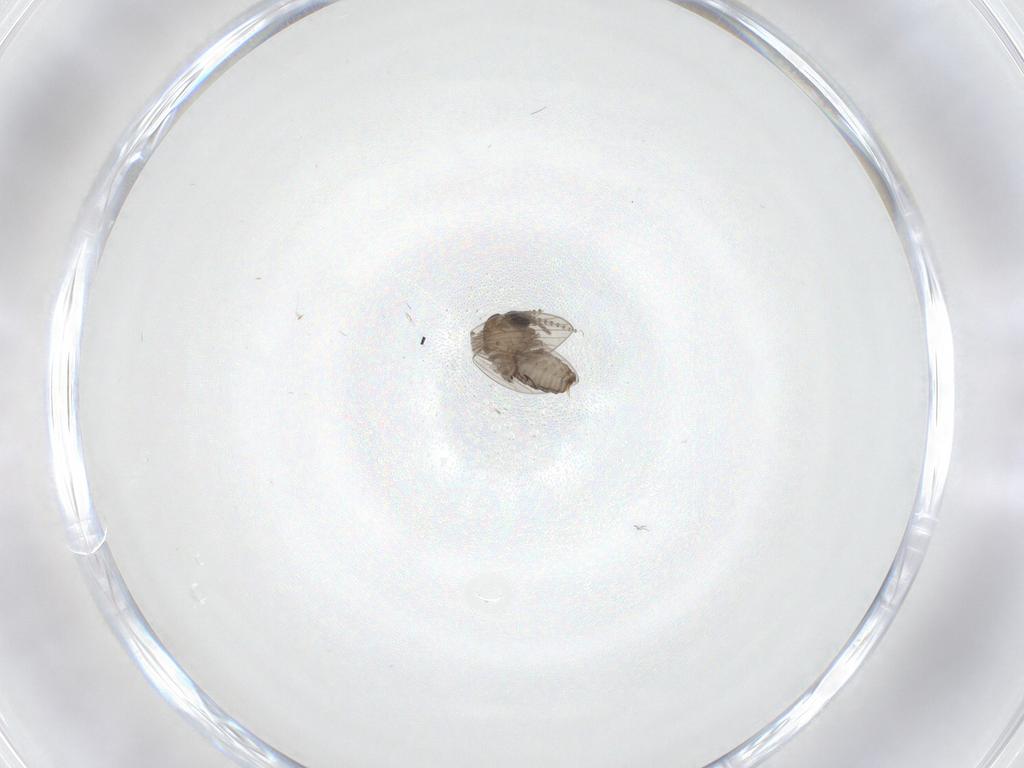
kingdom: Animalia
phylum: Arthropoda
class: Insecta
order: Diptera
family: Psychodidae
